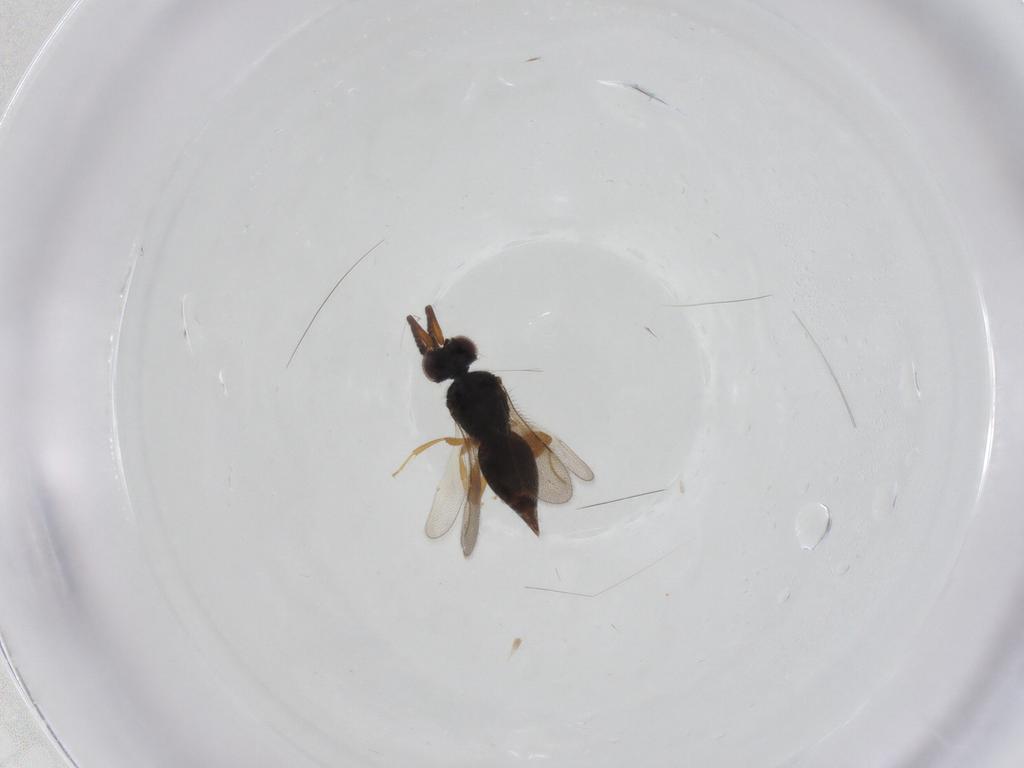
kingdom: Animalia
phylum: Arthropoda
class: Insecta
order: Hymenoptera
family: Ceraphronidae
